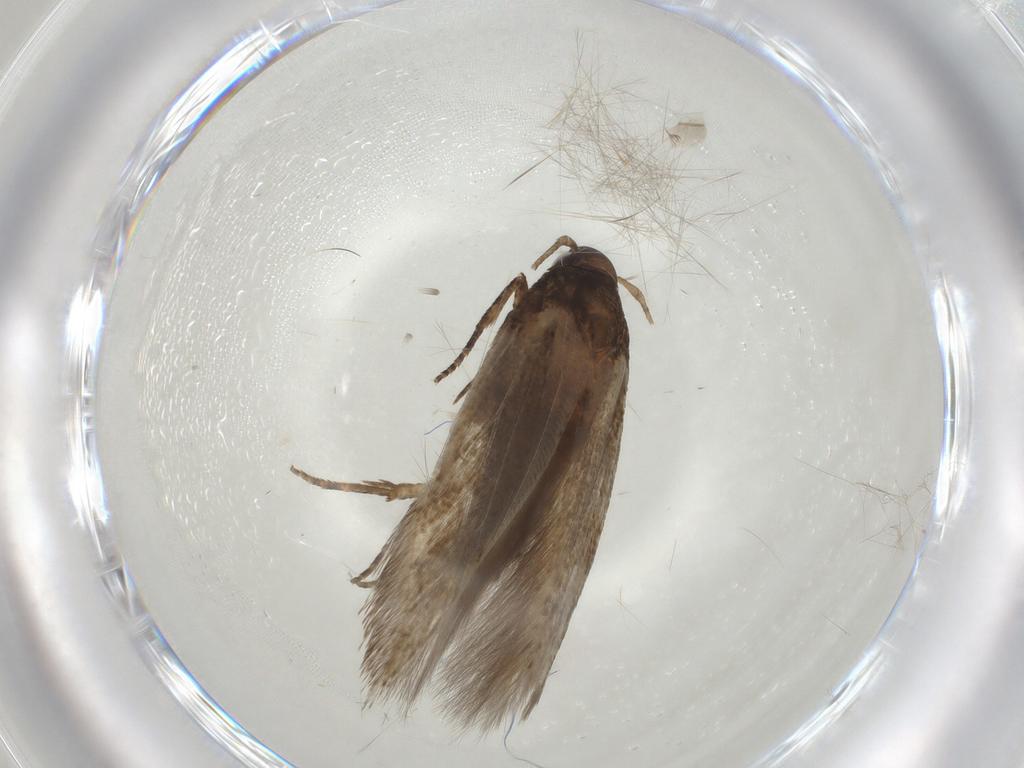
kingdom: Animalia
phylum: Arthropoda
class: Insecta
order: Lepidoptera
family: Cosmopterigidae
